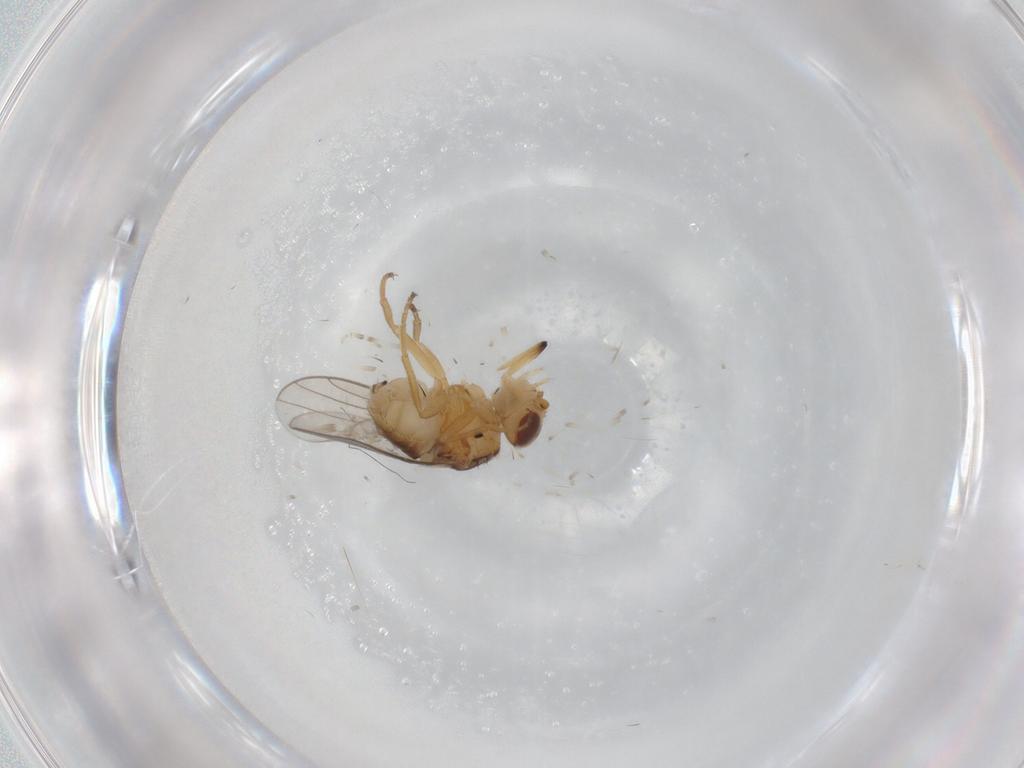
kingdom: Animalia
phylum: Arthropoda
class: Insecta
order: Diptera
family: Chloropidae
